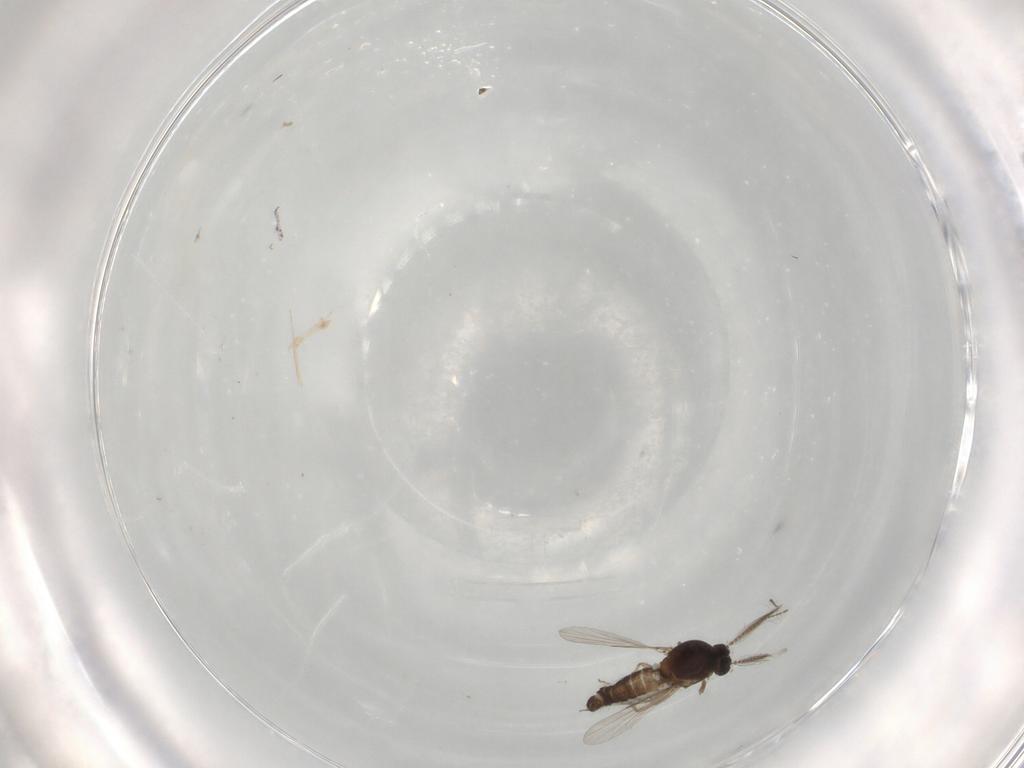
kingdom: Animalia
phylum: Arthropoda
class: Insecta
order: Diptera
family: Ceratopogonidae
